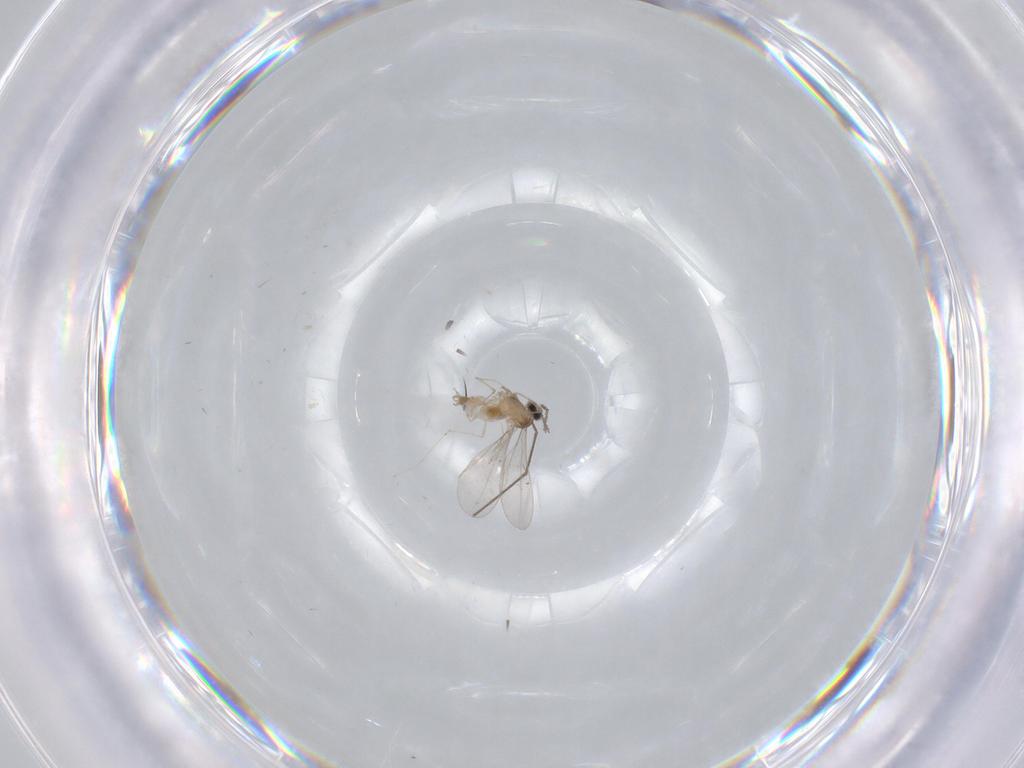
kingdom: Animalia
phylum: Arthropoda
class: Insecta
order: Diptera
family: Cecidomyiidae
